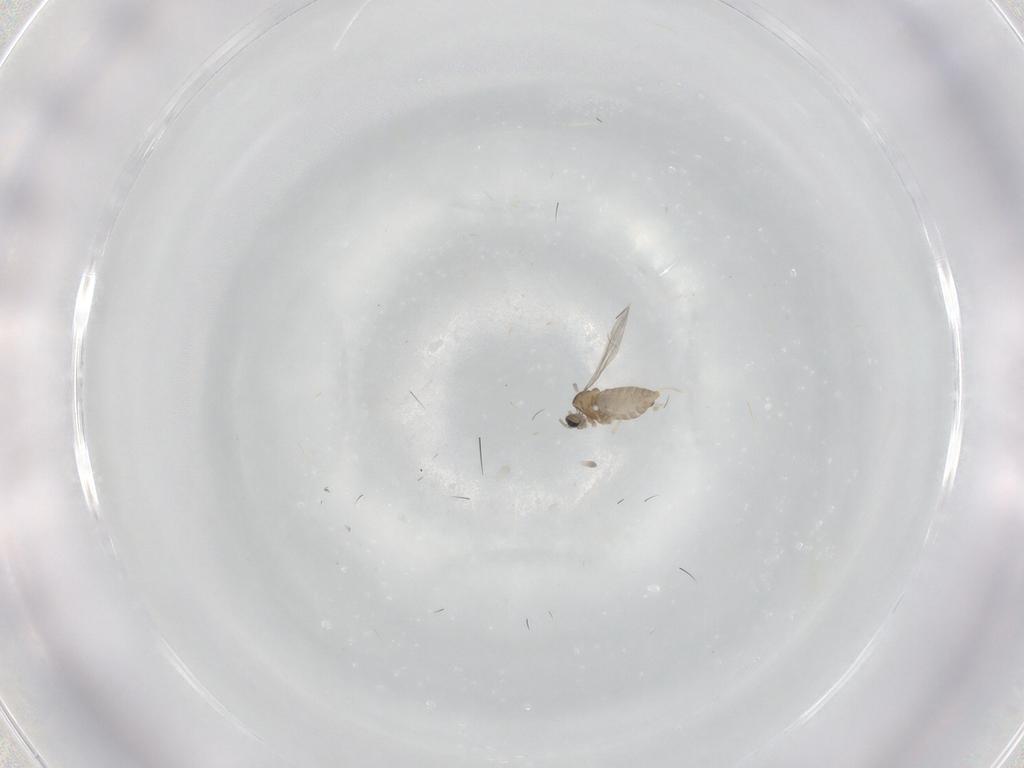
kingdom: Animalia
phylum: Arthropoda
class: Insecta
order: Diptera
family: Cecidomyiidae
